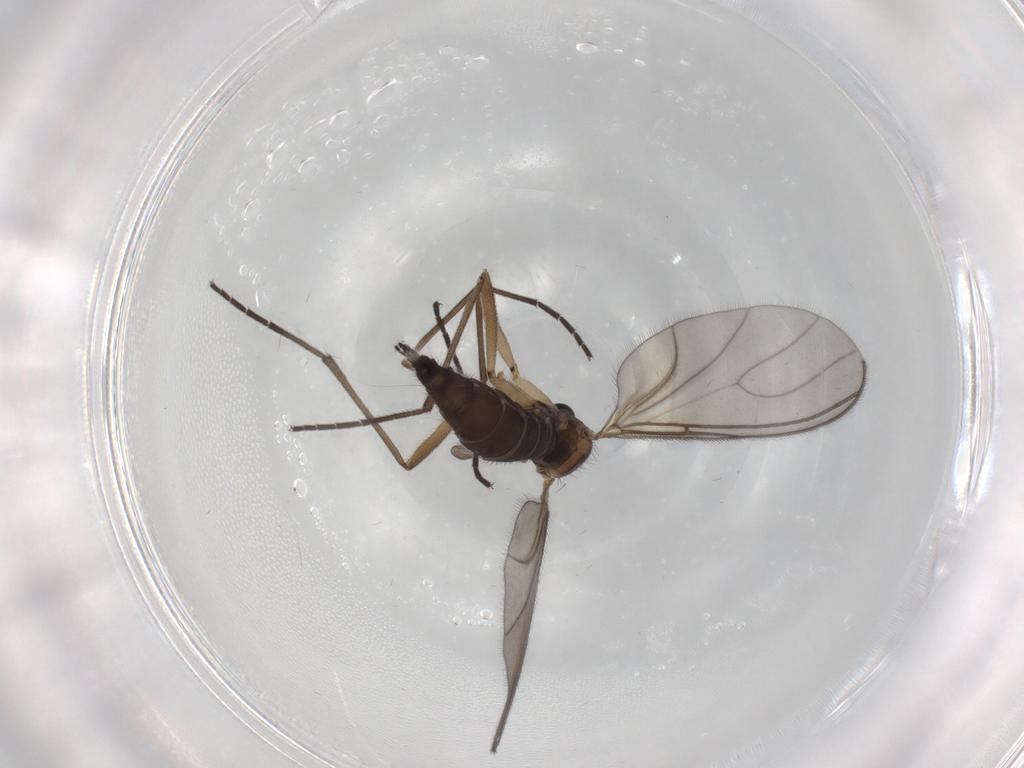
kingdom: Animalia
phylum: Arthropoda
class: Insecta
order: Diptera
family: Sciaridae
